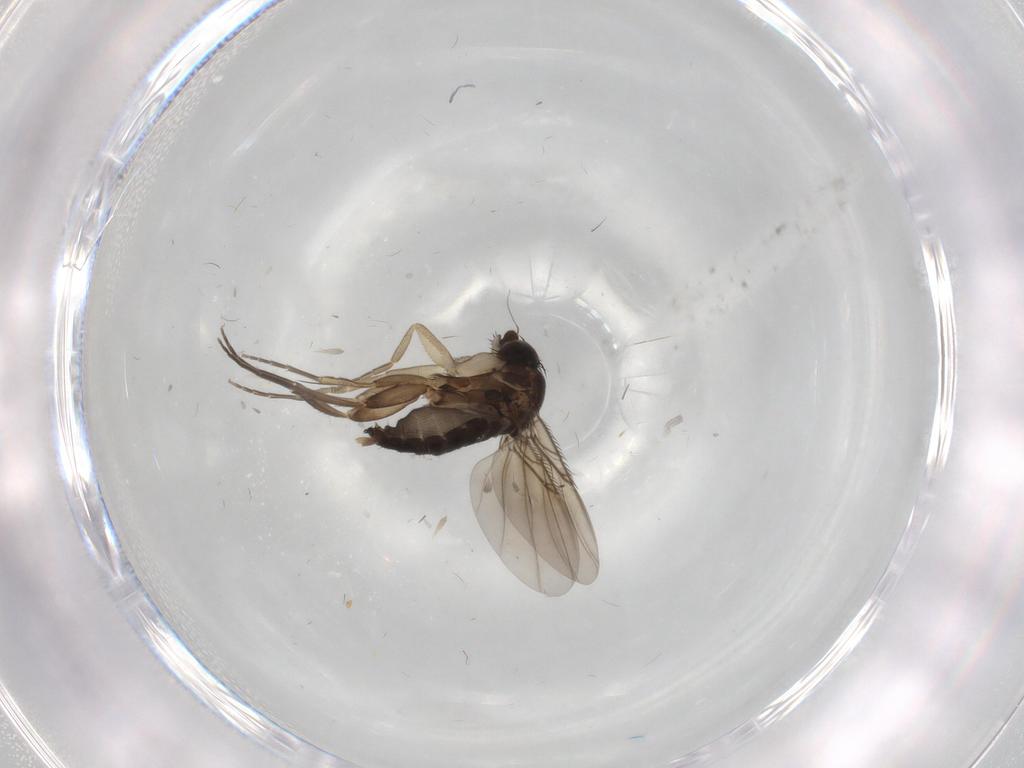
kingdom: Animalia
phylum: Arthropoda
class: Insecta
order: Diptera
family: Phoridae
